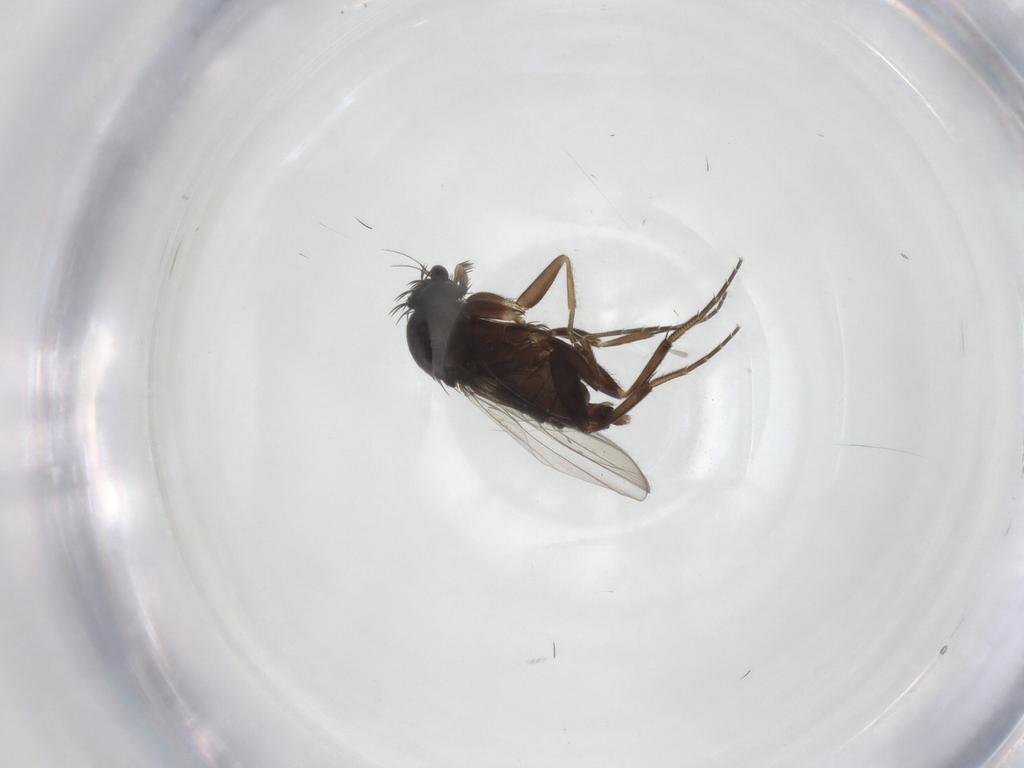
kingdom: Animalia
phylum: Arthropoda
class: Insecta
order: Diptera
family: Phoridae
